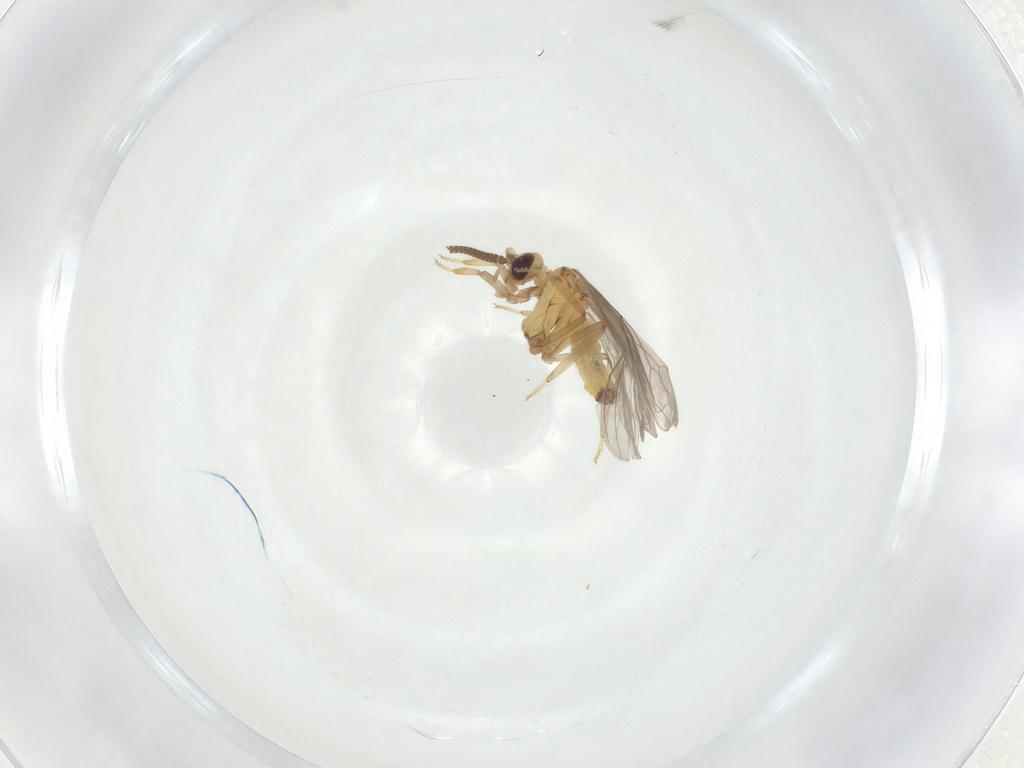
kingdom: Animalia
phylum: Arthropoda
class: Insecta
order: Neuroptera
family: Coniopterygidae
